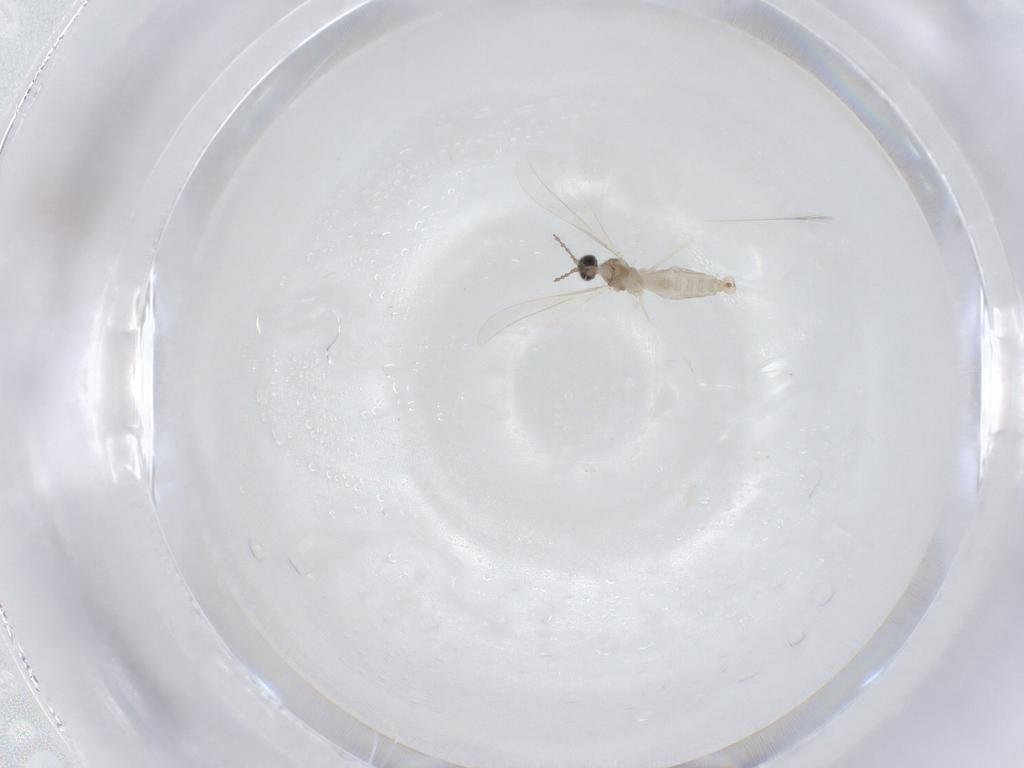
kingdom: Animalia
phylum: Arthropoda
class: Insecta
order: Diptera
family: Cecidomyiidae
